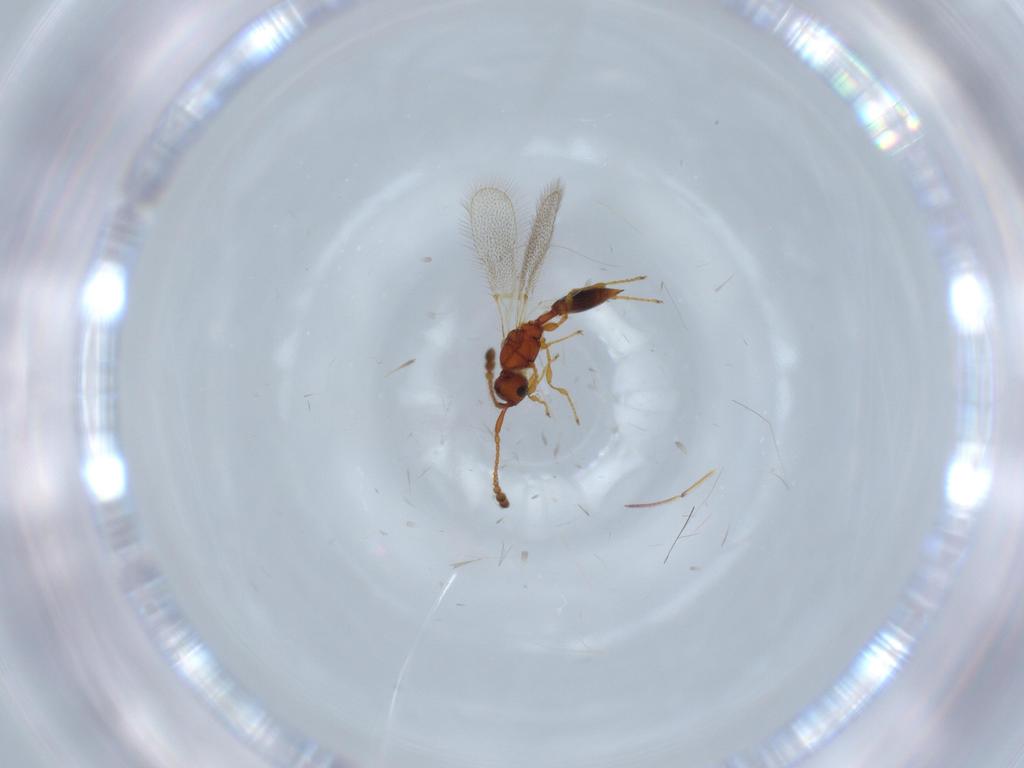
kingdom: Animalia
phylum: Arthropoda
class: Insecta
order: Hymenoptera
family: Diapriidae
